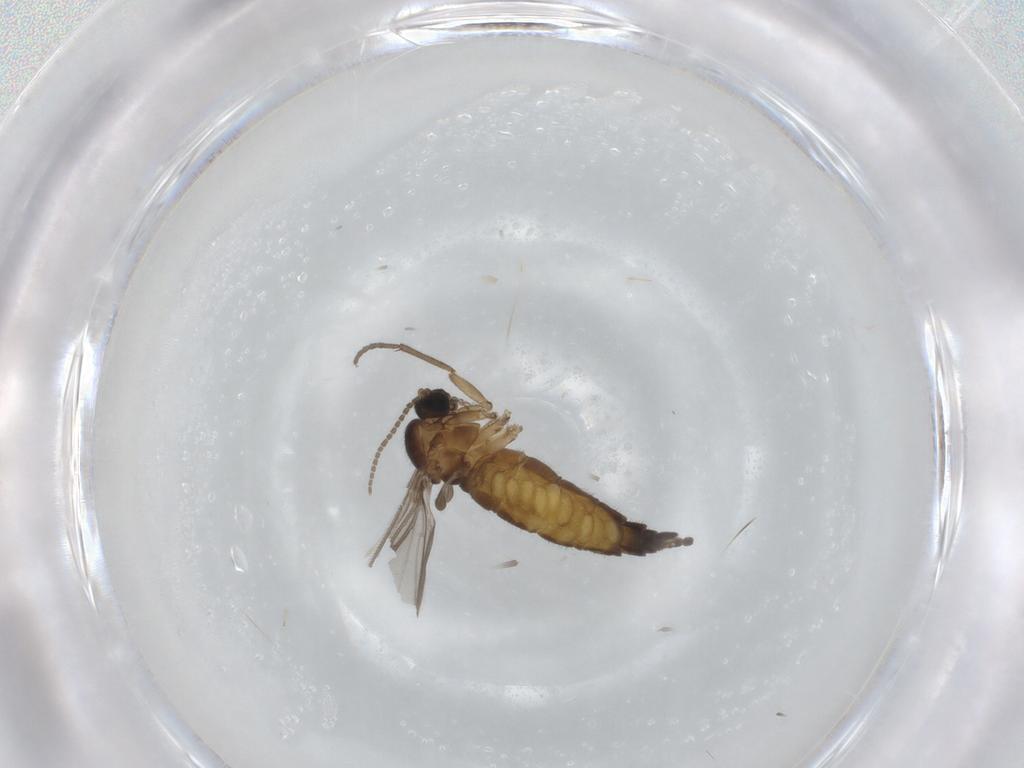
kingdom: Animalia
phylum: Arthropoda
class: Insecta
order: Diptera
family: Sciaridae
